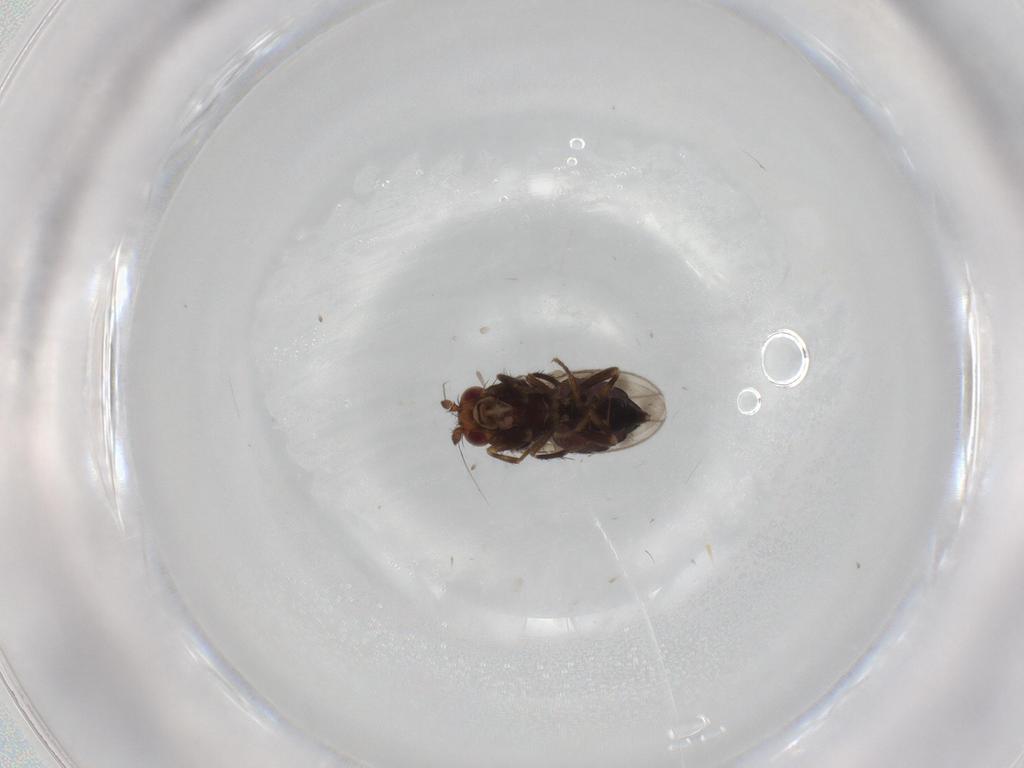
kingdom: Animalia
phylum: Arthropoda
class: Insecta
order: Diptera
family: Sphaeroceridae
